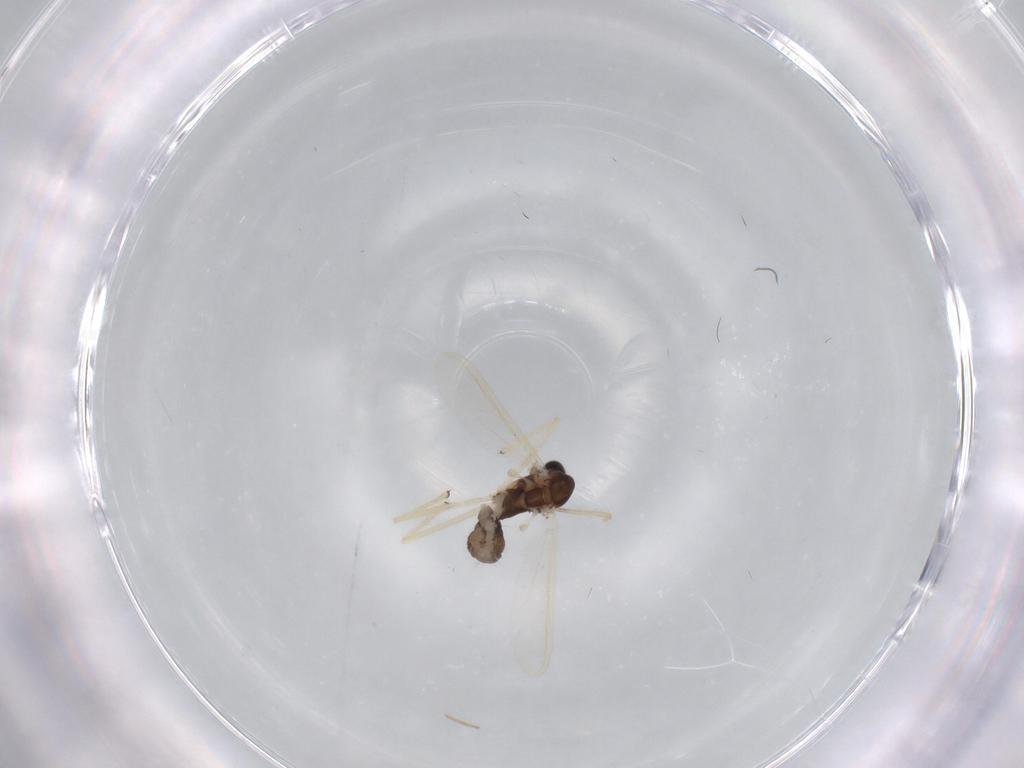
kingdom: Animalia
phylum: Arthropoda
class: Insecta
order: Diptera
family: Chironomidae
